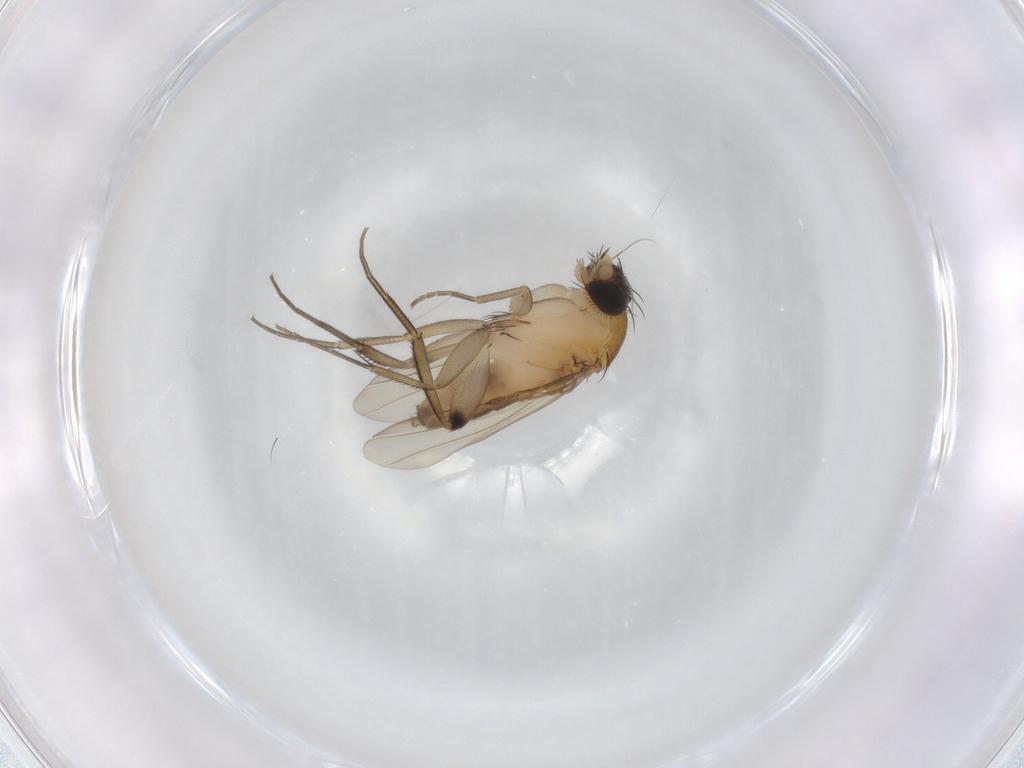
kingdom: Animalia
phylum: Arthropoda
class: Insecta
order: Diptera
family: Phoridae
